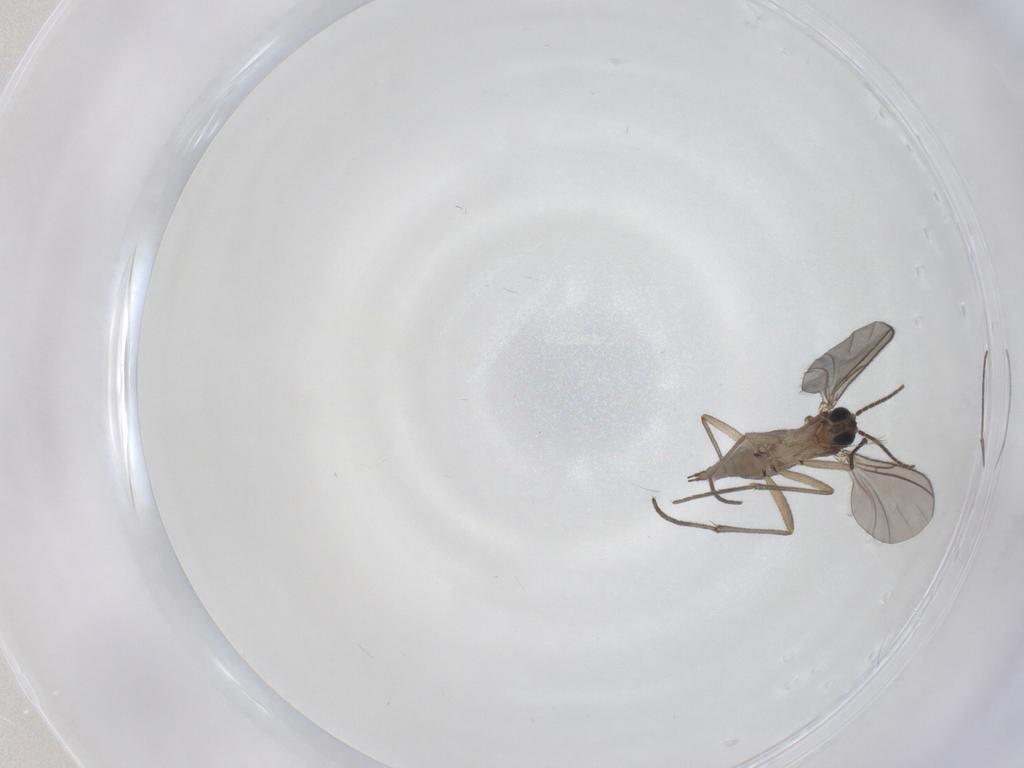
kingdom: Animalia
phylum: Arthropoda
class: Insecta
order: Diptera
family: Sciaridae
